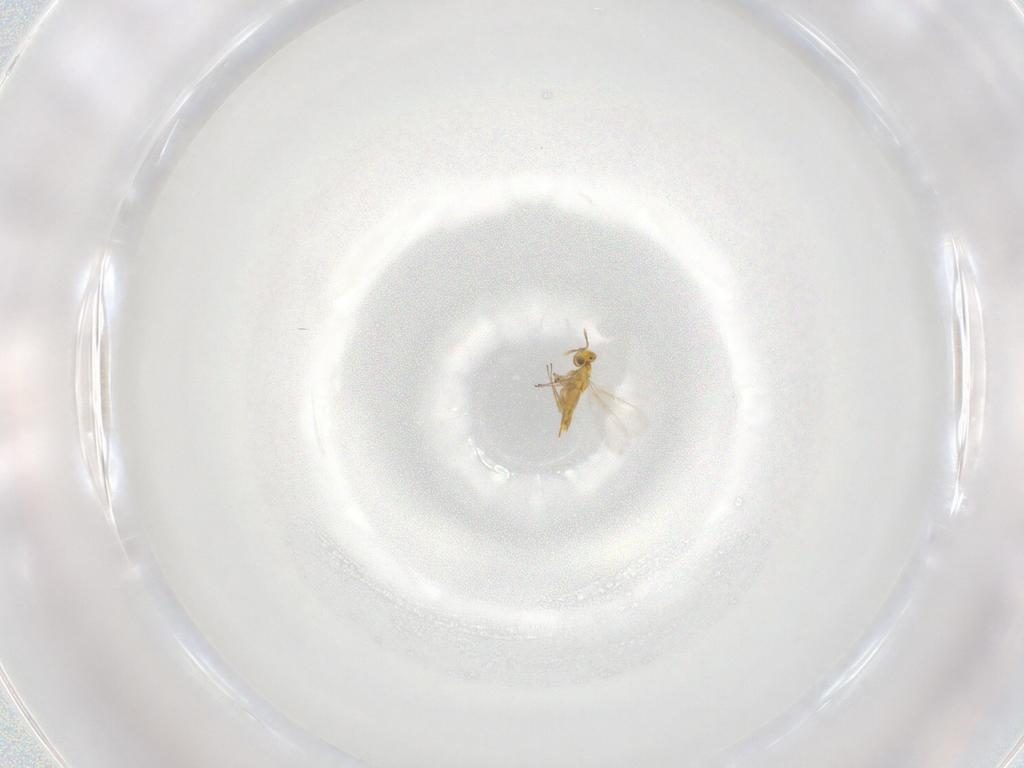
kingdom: Animalia
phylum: Arthropoda
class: Insecta
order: Hymenoptera
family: Aphelinidae
